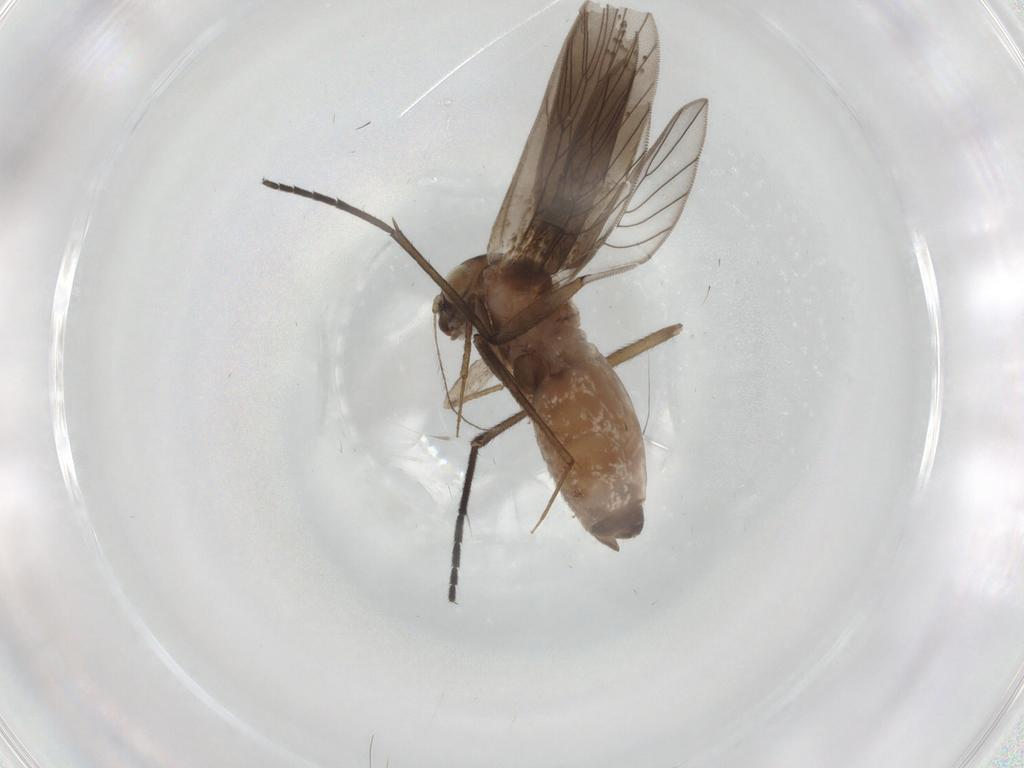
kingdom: Animalia
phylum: Arthropoda
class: Insecta
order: Psocodea
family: Lepidopsocidae
